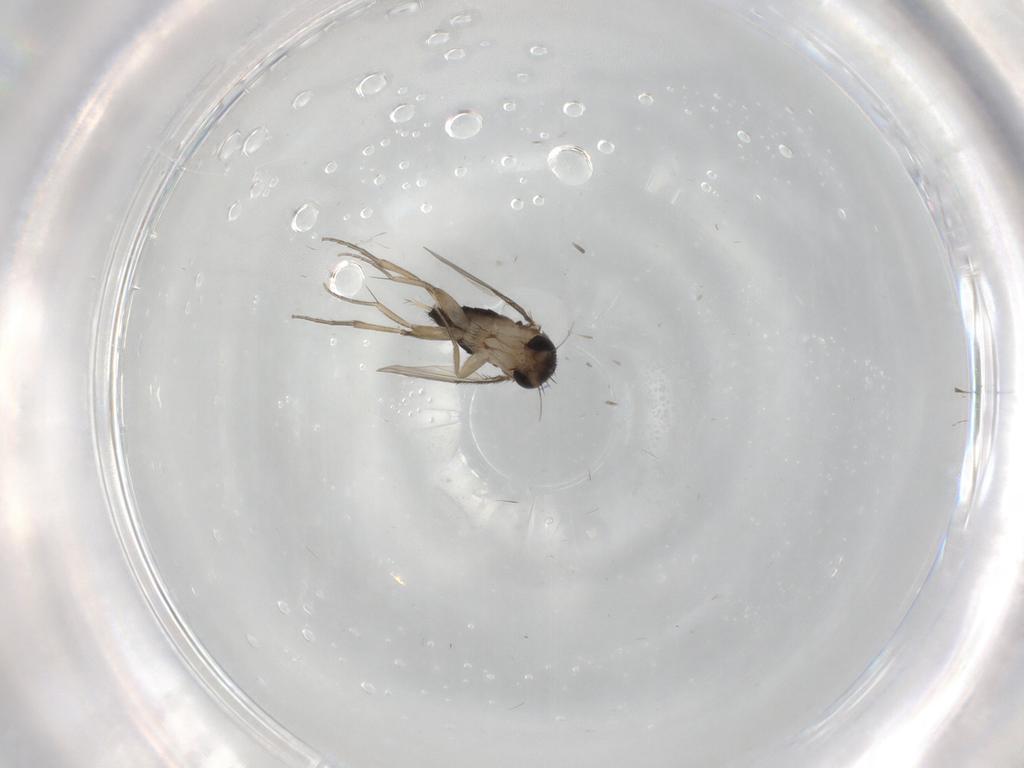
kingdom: Animalia
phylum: Arthropoda
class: Insecta
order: Diptera
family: Phoridae
